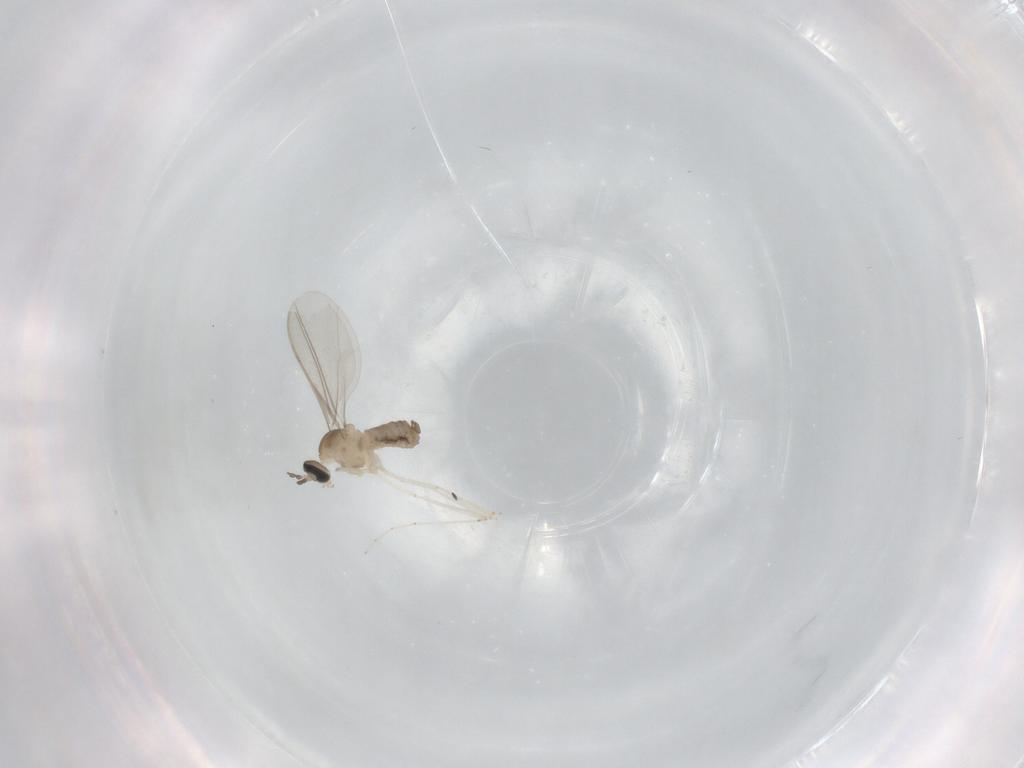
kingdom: Animalia
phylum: Arthropoda
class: Insecta
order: Diptera
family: Cecidomyiidae
